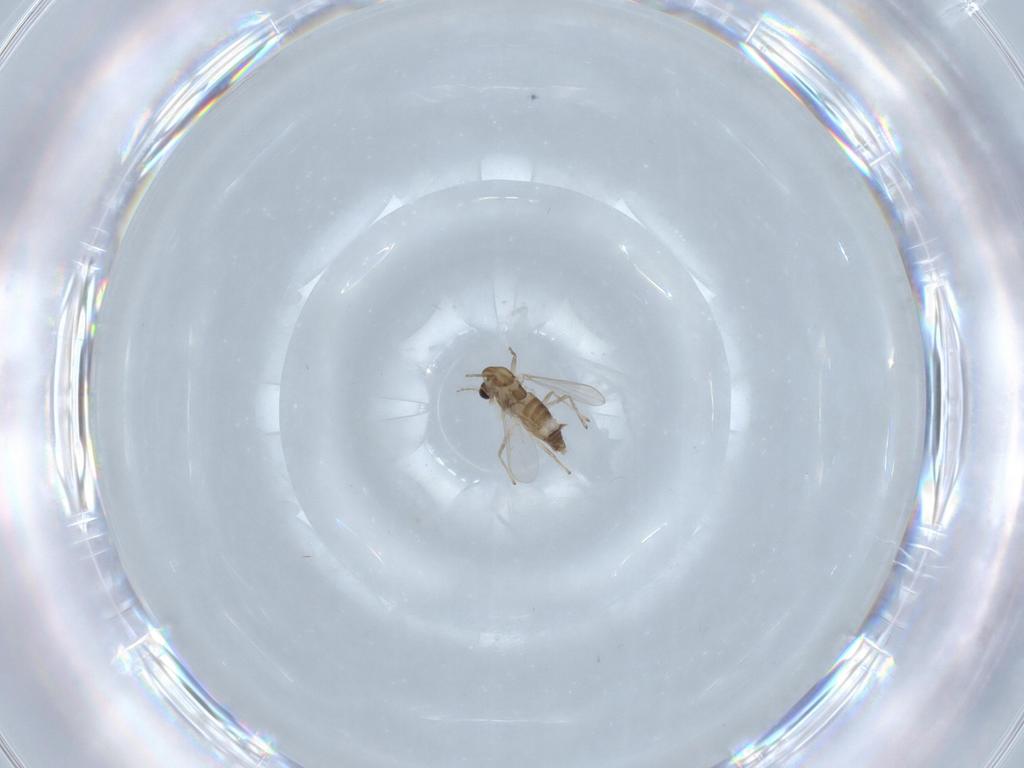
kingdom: Animalia
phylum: Arthropoda
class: Insecta
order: Diptera
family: Chironomidae
